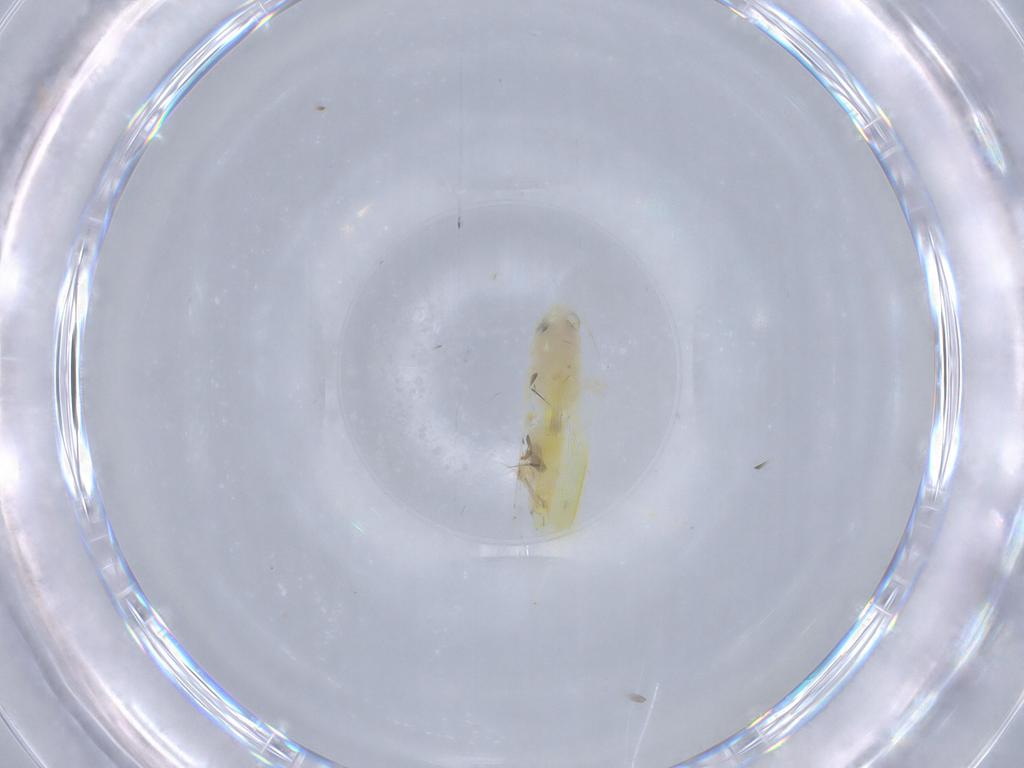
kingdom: Animalia
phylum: Arthropoda
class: Insecta
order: Hemiptera
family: Cicadellidae
